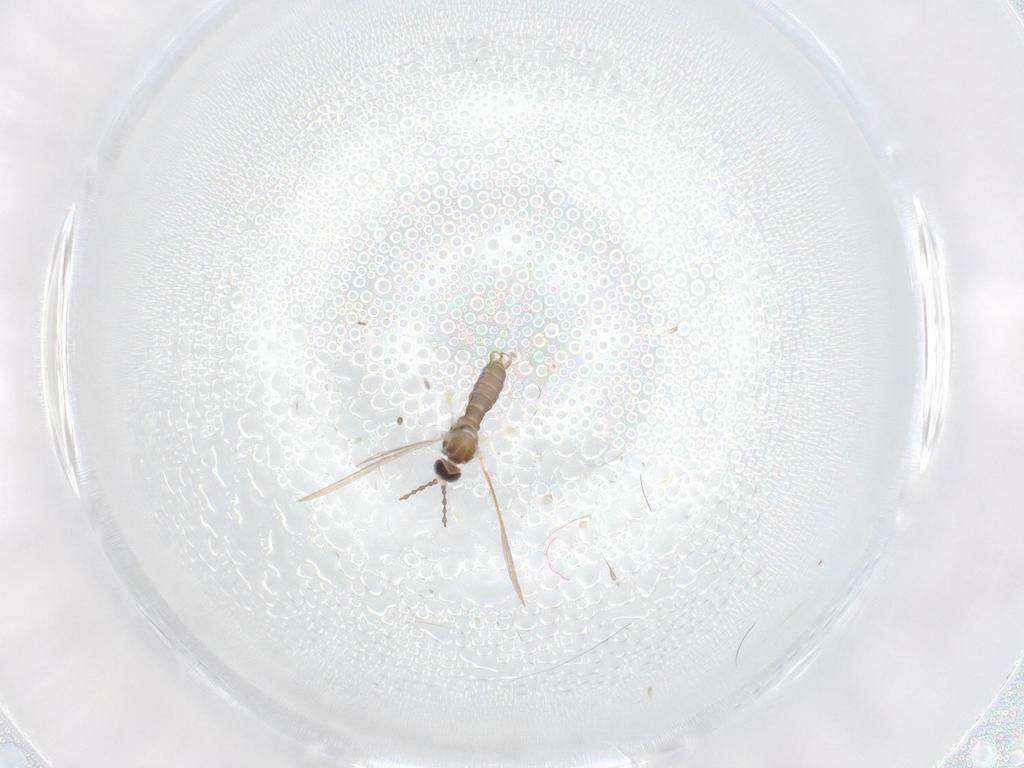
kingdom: Animalia
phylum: Arthropoda
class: Insecta
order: Diptera
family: Cecidomyiidae
